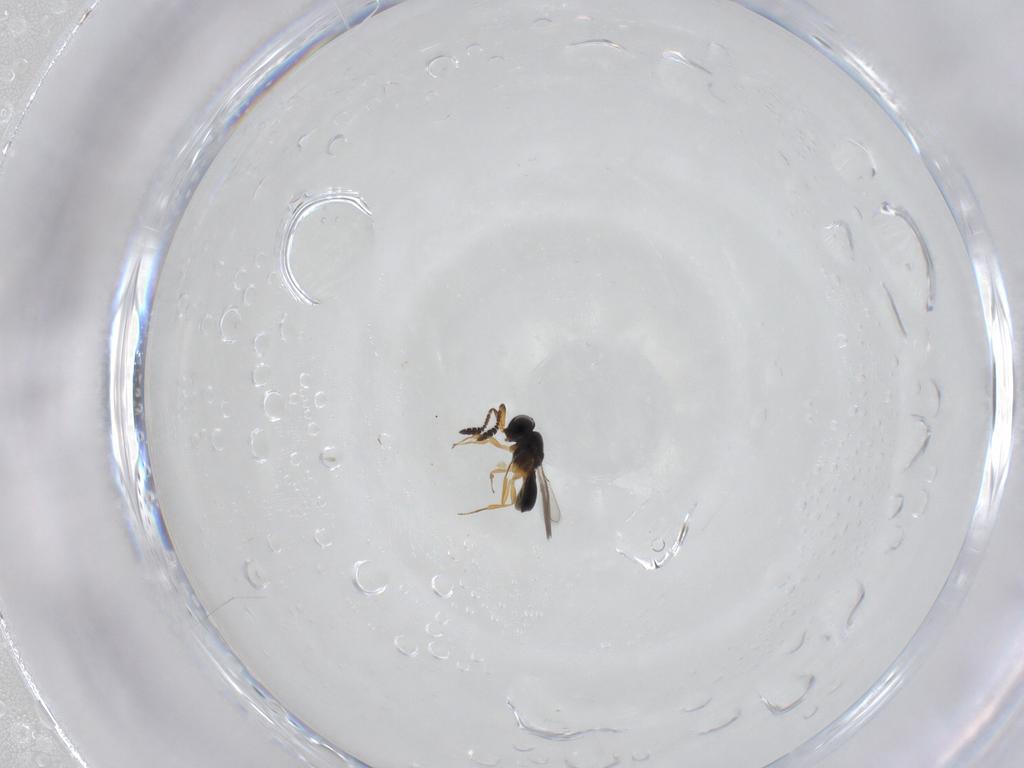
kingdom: Animalia
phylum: Arthropoda
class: Insecta
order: Hymenoptera
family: Scelionidae
